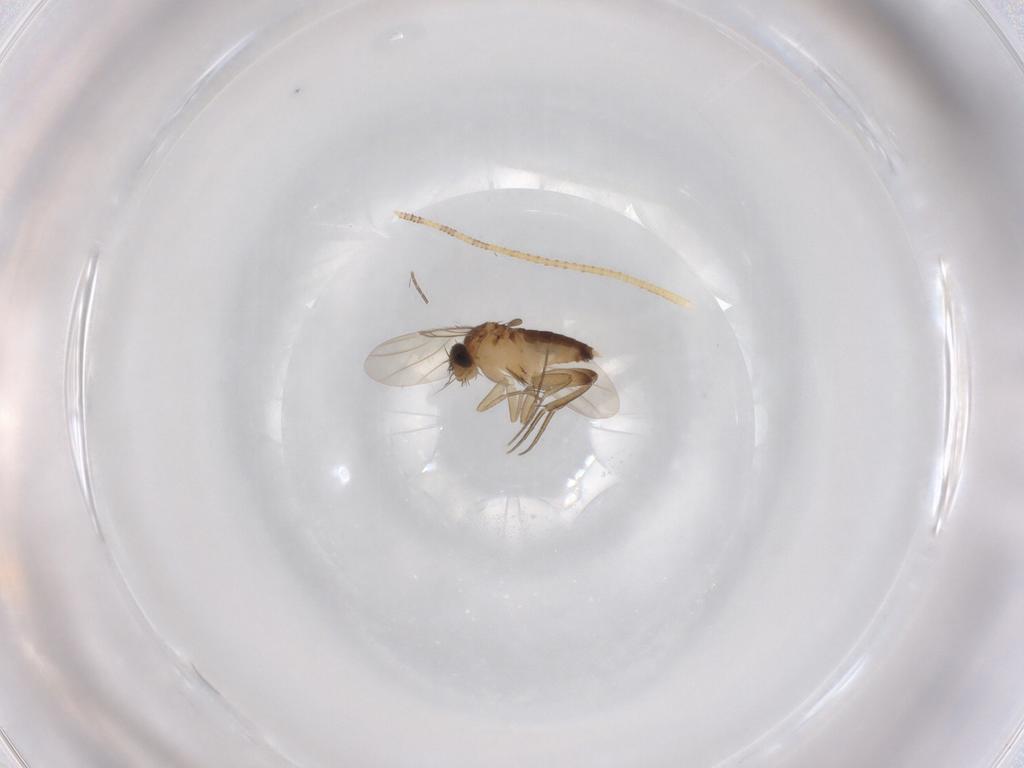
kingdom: Animalia
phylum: Arthropoda
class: Insecta
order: Diptera
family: Phoridae
